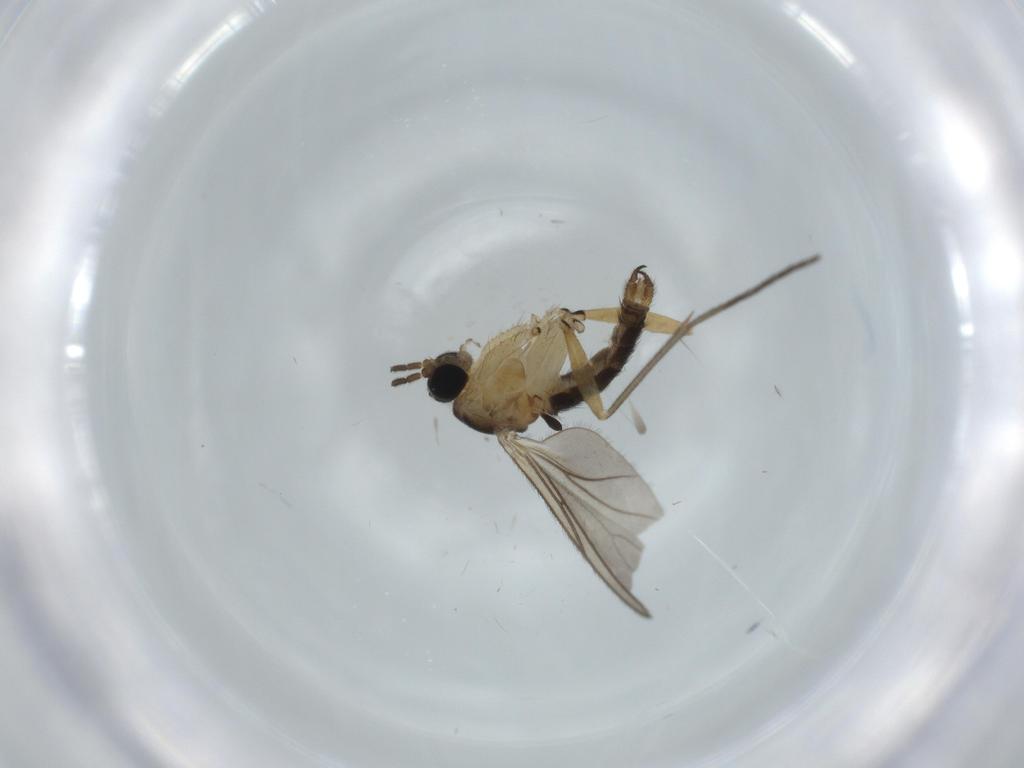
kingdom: Animalia
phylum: Arthropoda
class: Insecta
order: Diptera
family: Sciaridae
